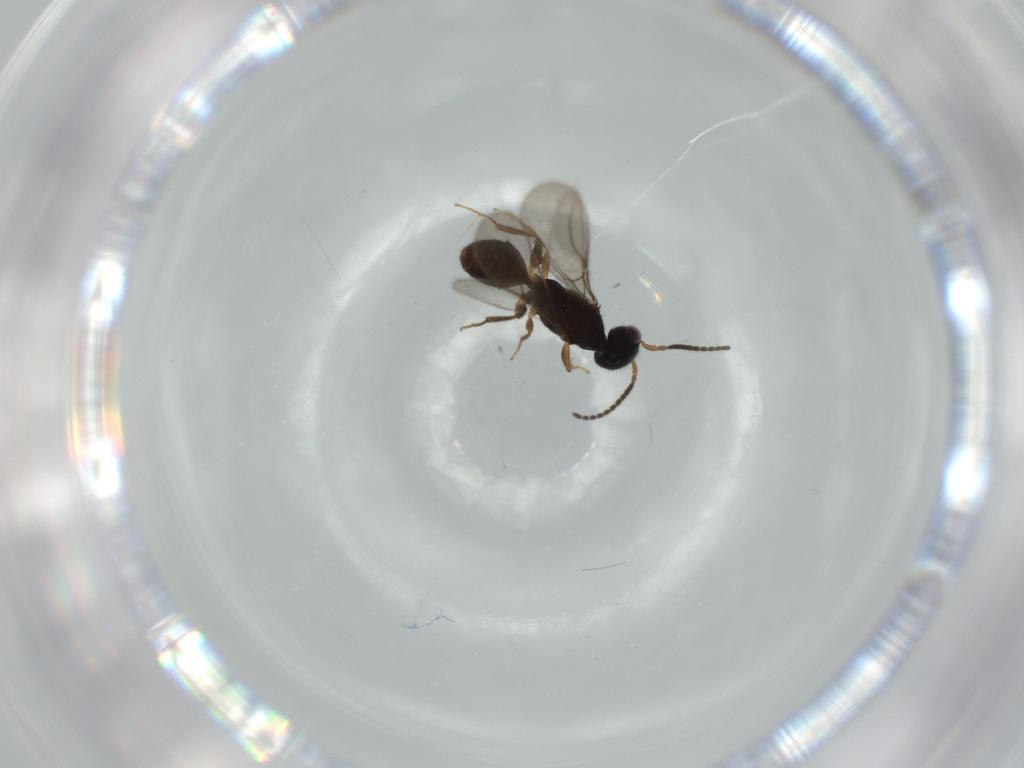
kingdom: Animalia
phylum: Arthropoda
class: Insecta
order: Hymenoptera
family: Bethylidae
